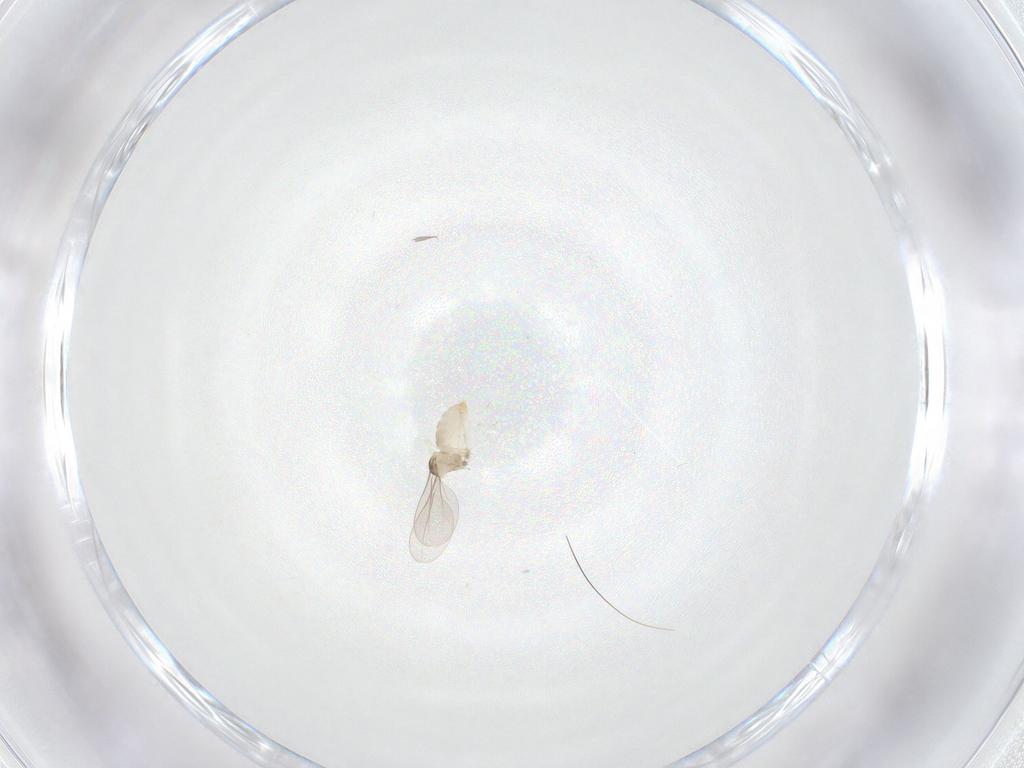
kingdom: Animalia
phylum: Arthropoda
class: Insecta
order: Diptera
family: Cecidomyiidae
